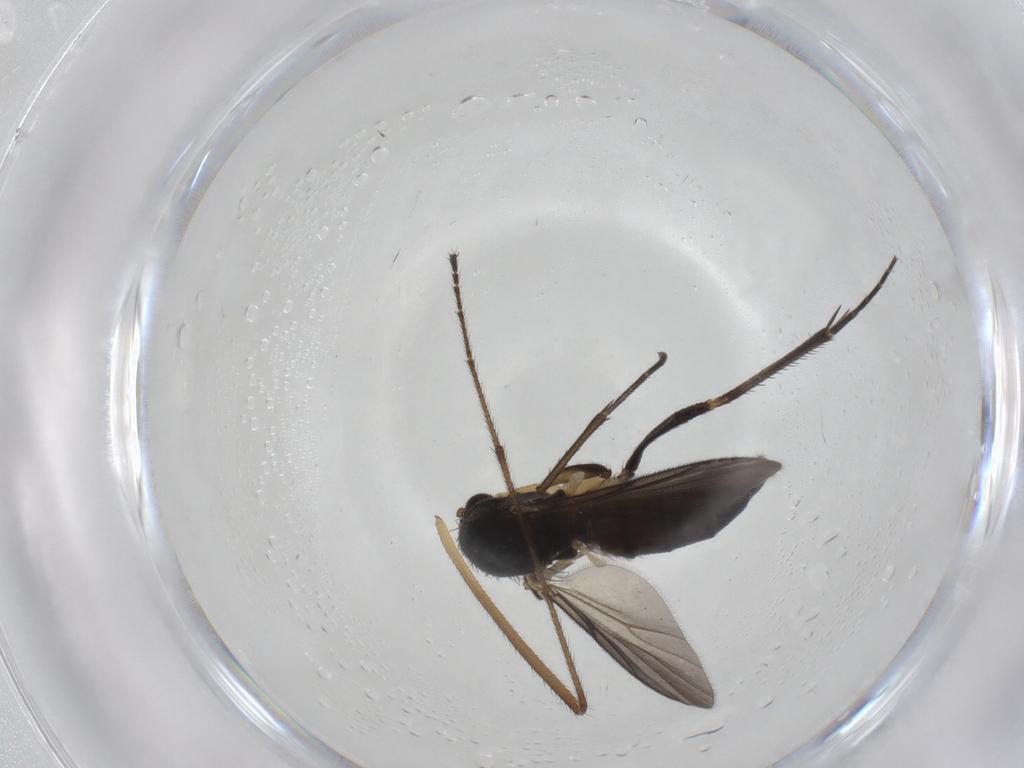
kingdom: Animalia
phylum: Arthropoda
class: Insecta
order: Diptera
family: Mycetophilidae
